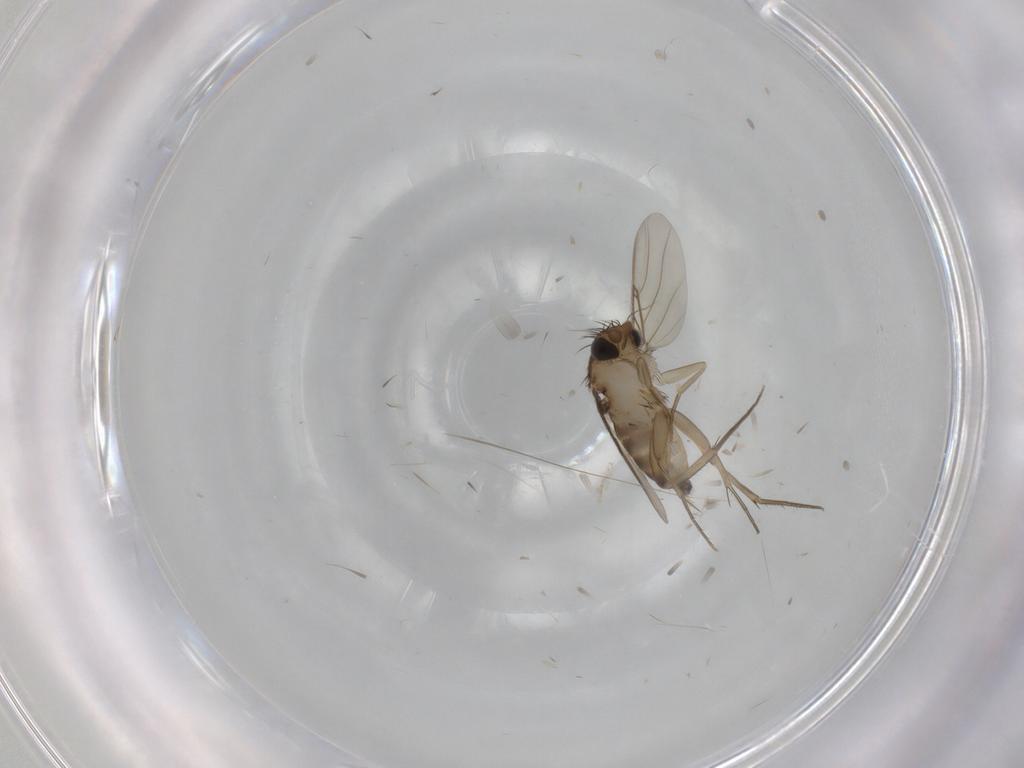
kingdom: Animalia
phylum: Arthropoda
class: Insecta
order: Diptera
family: Phoridae
